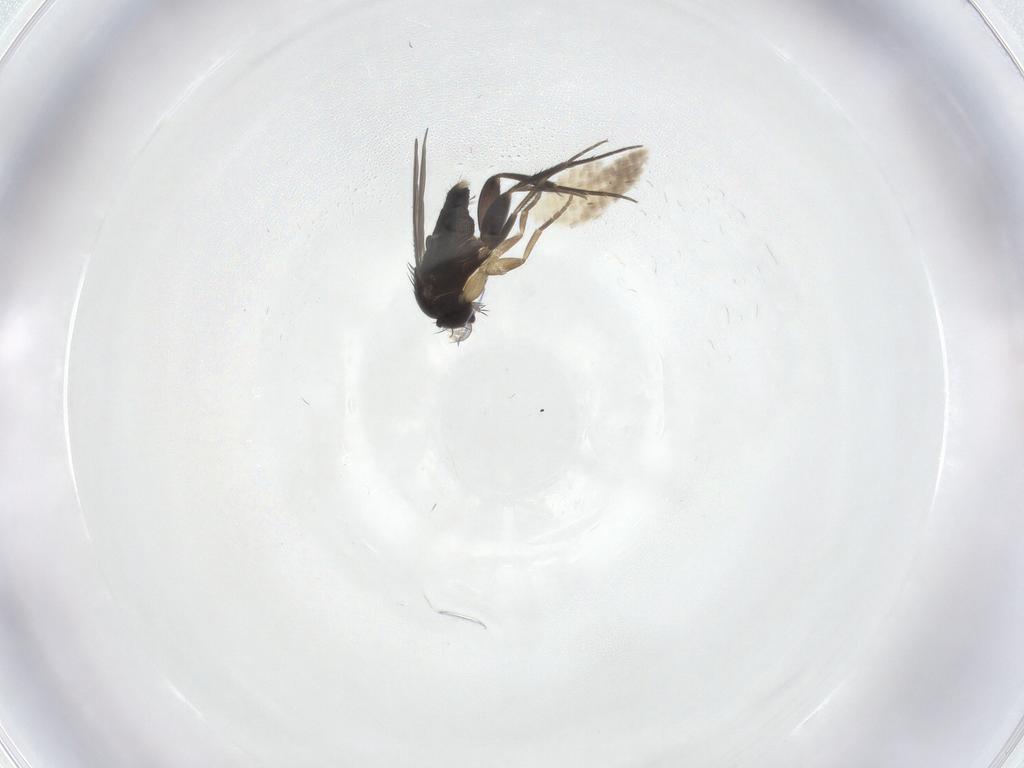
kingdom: Animalia
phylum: Arthropoda
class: Insecta
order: Diptera
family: Phoridae
